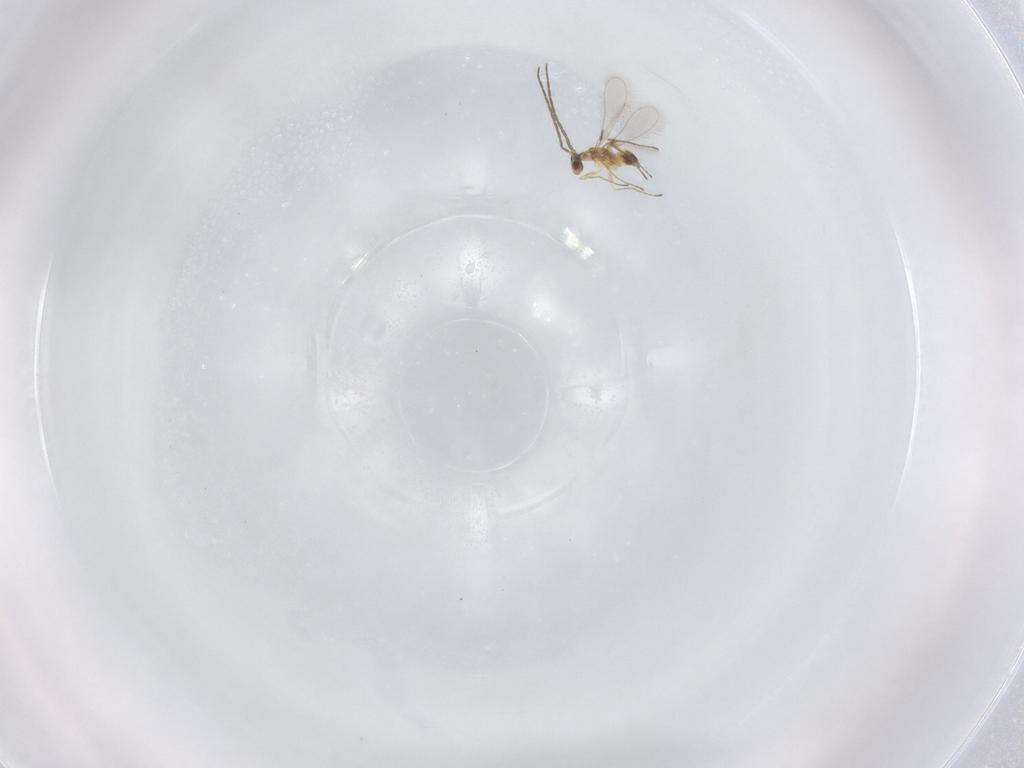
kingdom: Animalia
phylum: Arthropoda
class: Insecta
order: Hymenoptera
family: Mymaridae
